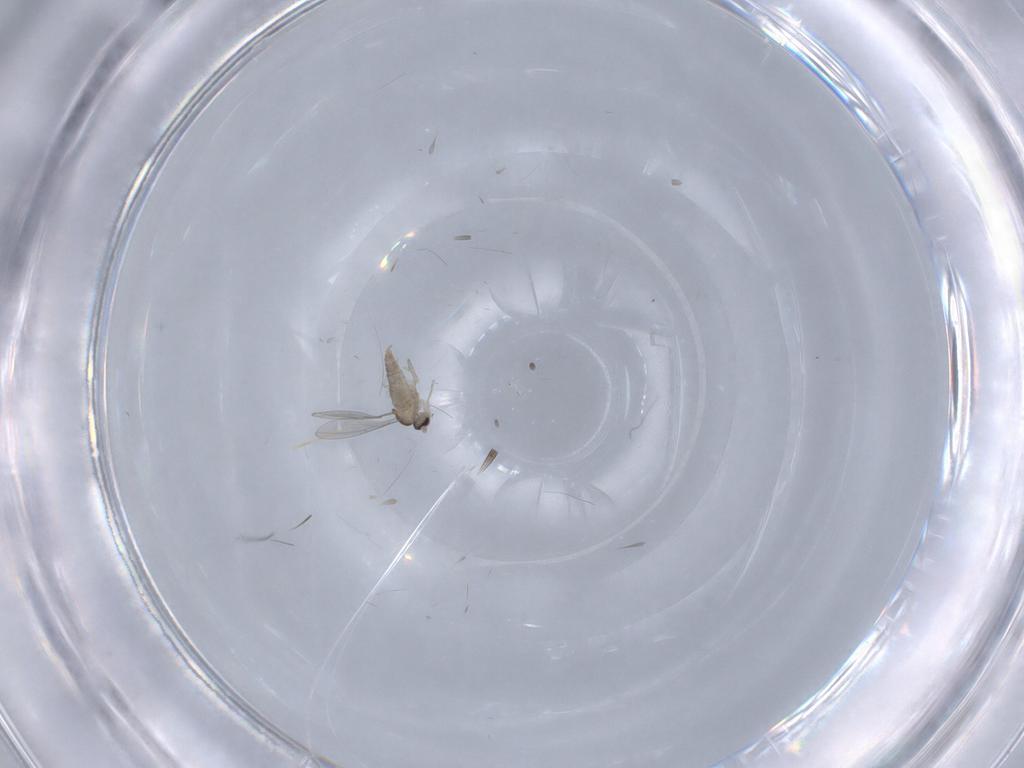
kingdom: Animalia
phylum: Arthropoda
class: Insecta
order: Diptera
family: Cecidomyiidae
